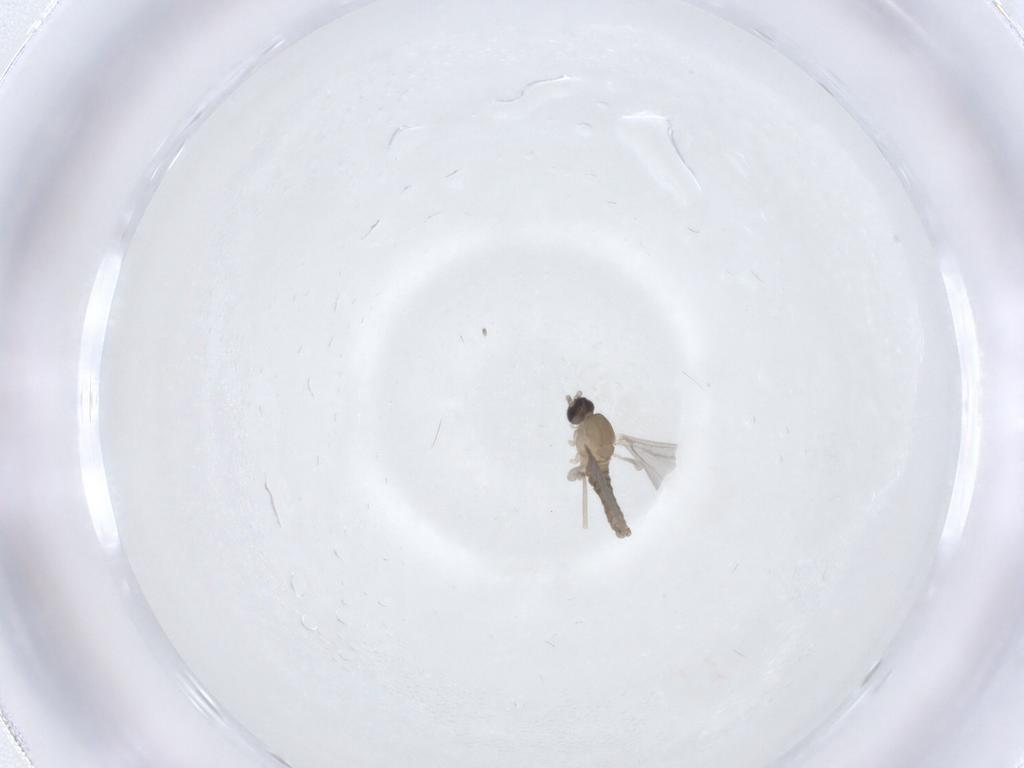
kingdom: Animalia
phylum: Arthropoda
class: Insecta
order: Diptera
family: Cecidomyiidae
